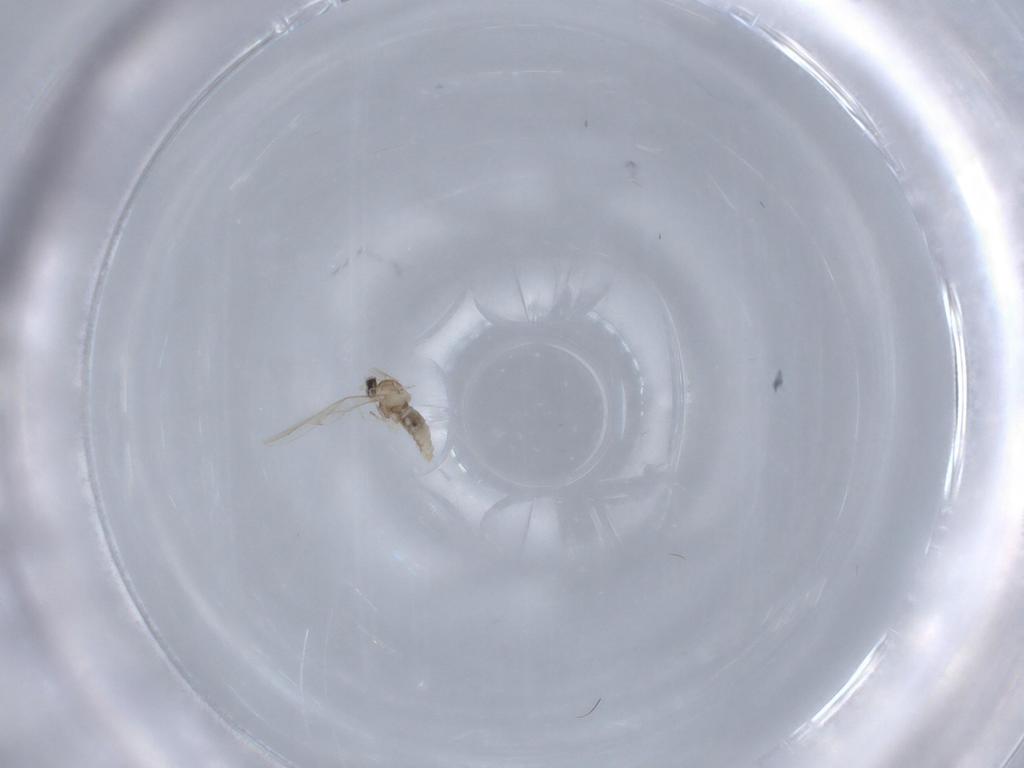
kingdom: Animalia
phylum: Arthropoda
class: Insecta
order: Diptera
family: Cecidomyiidae
